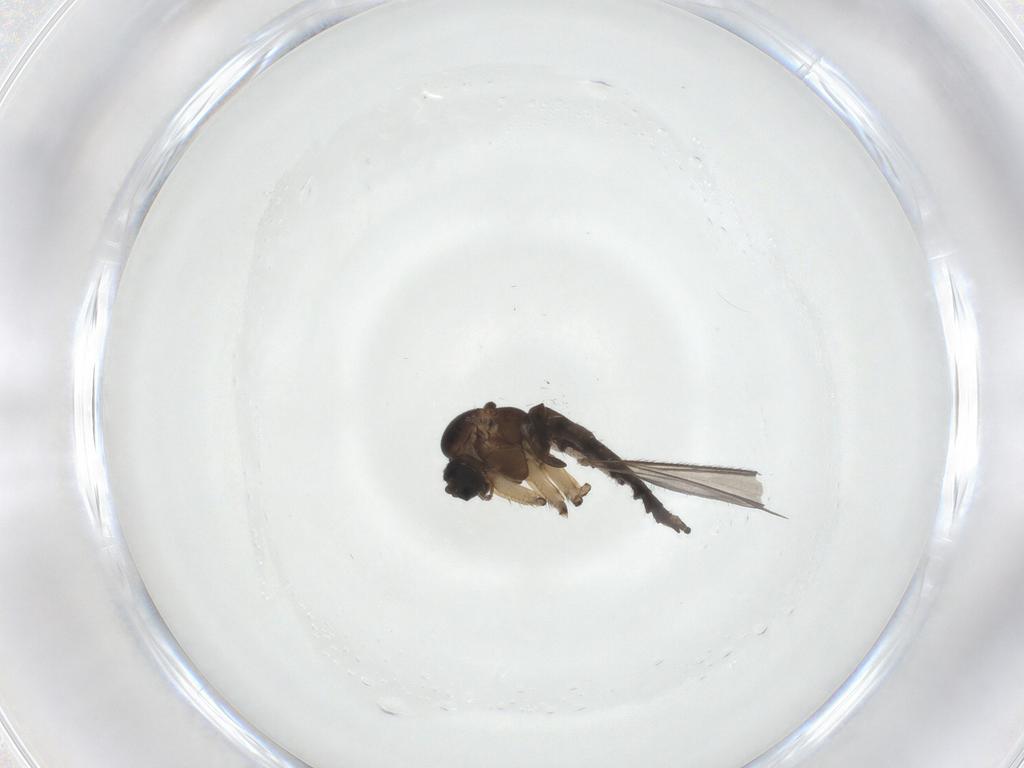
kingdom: Animalia
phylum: Arthropoda
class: Insecta
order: Diptera
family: Sciaridae
